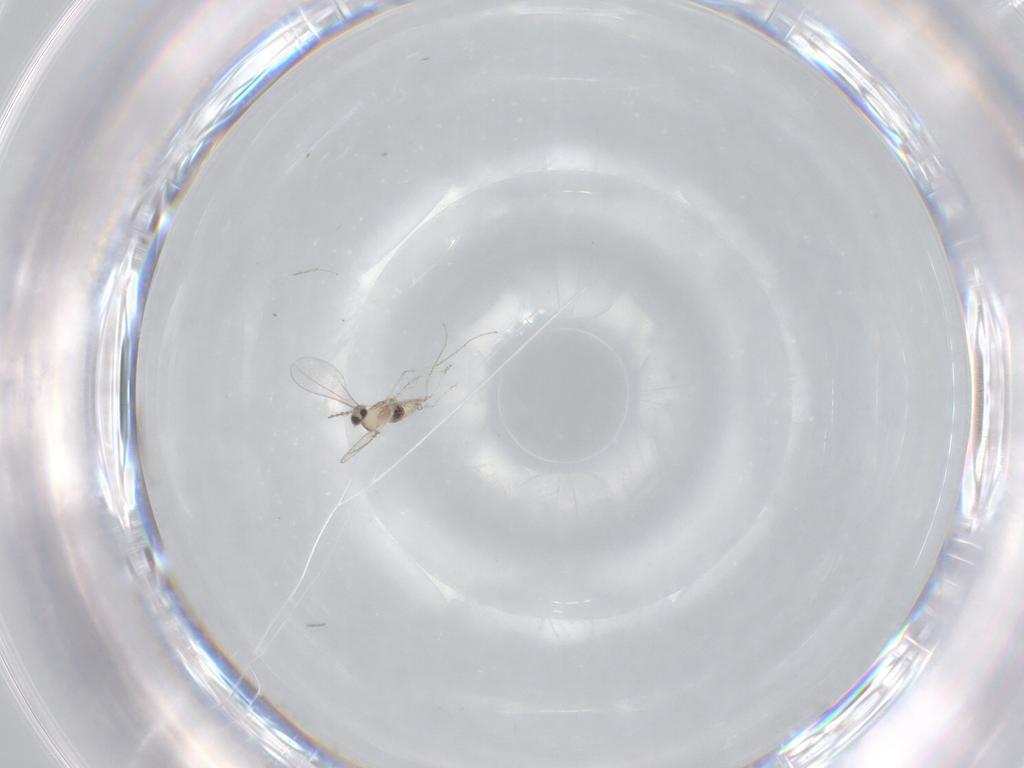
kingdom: Animalia
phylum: Arthropoda
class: Insecta
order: Diptera
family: Cecidomyiidae
